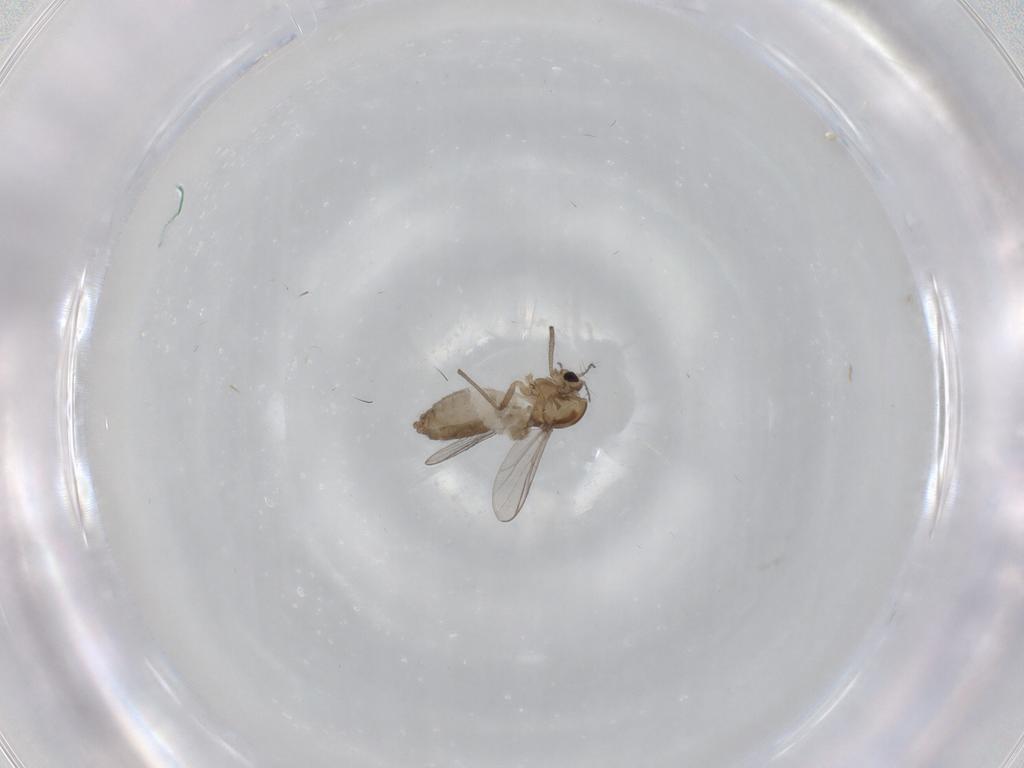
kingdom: Animalia
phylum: Arthropoda
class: Insecta
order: Diptera
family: Chironomidae
